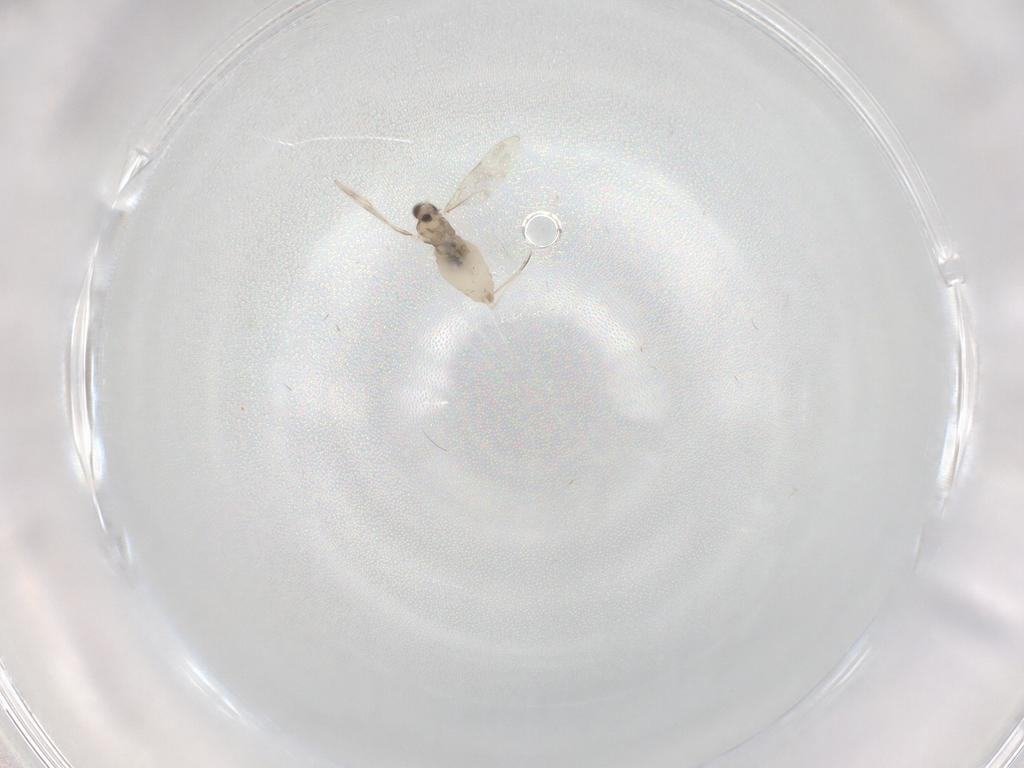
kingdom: Animalia
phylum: Arthropoda
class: Insecta
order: Diptera
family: Cecidomyiidae
